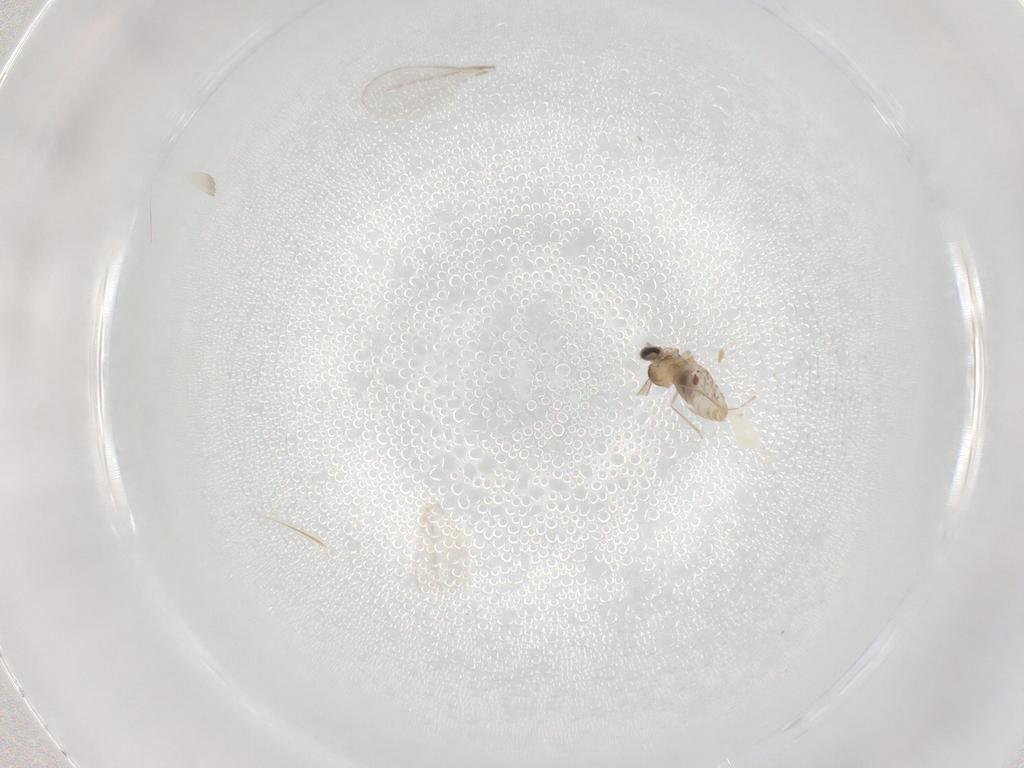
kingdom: Animalia
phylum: Arthropoda
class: Insecta
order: Diptera
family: Cecidomyiidae
